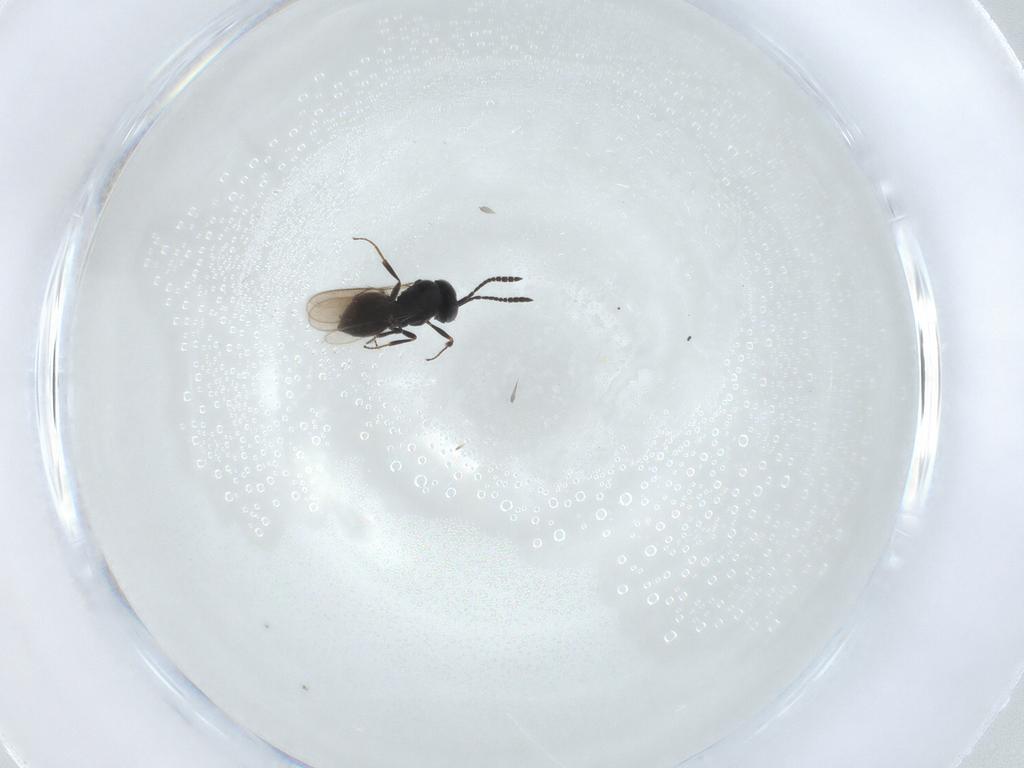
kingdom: Animalia
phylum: Arthropoda
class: Insecta
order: Hymenoptera
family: Scelionidae
